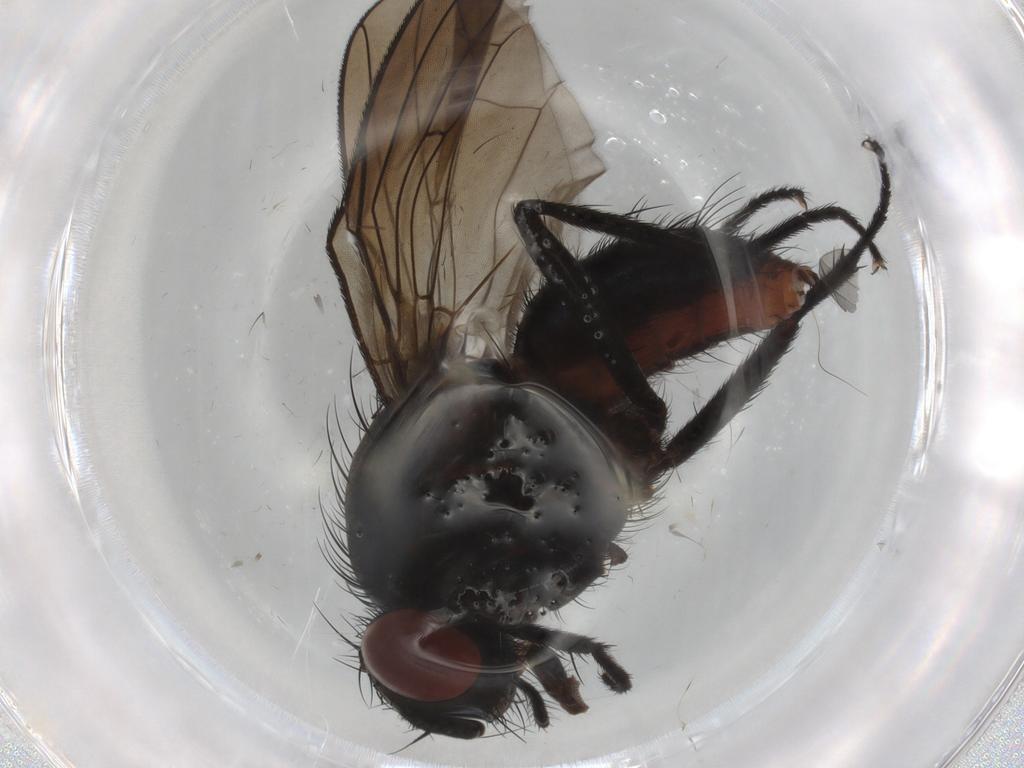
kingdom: Animalia
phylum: Arthropoda
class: Insecta
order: Diptera
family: Anthomyiidae
